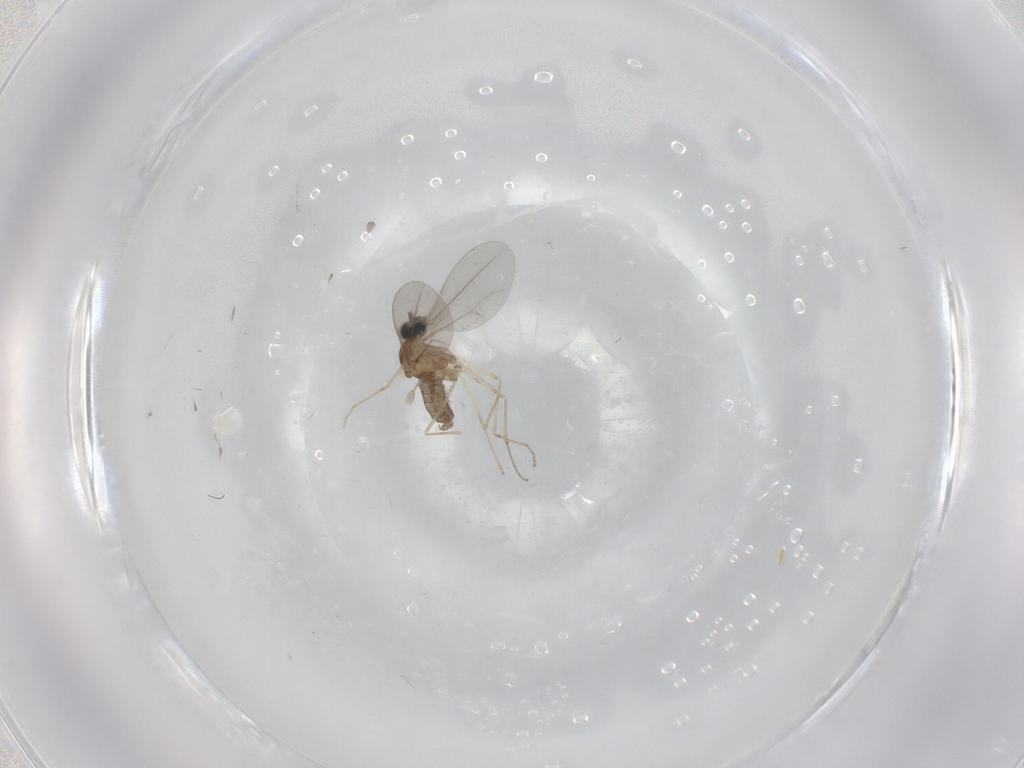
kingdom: Animalia
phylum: Arthropoda
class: Insecta
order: Diptera
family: Cecidomyiidae
